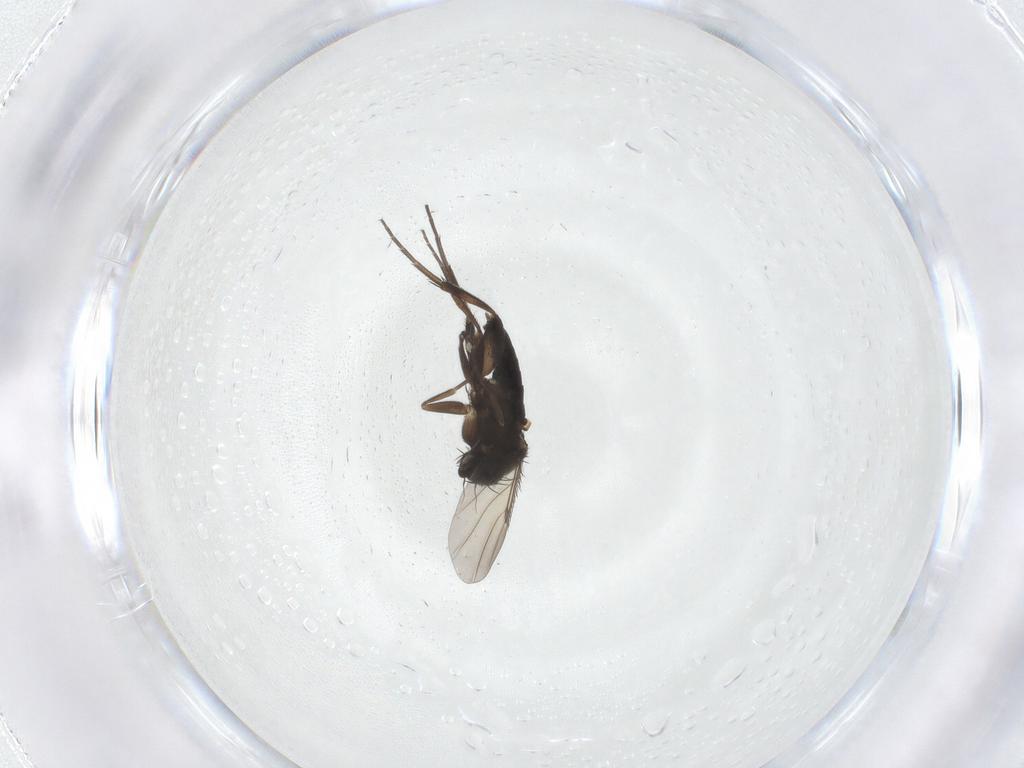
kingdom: Animalia
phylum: Arthropoda
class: Insecta
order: Diptera
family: Phoridae
